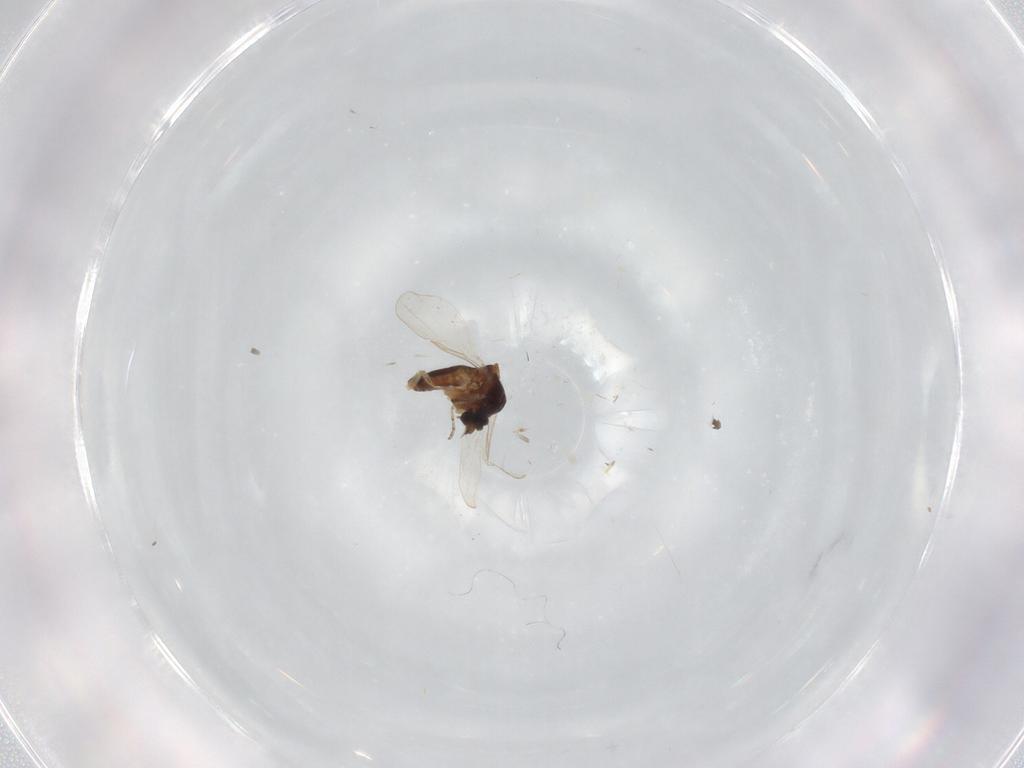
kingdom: Animalia
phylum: Arthropoda
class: Insecta
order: Diptera
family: Ceratopogonidae
